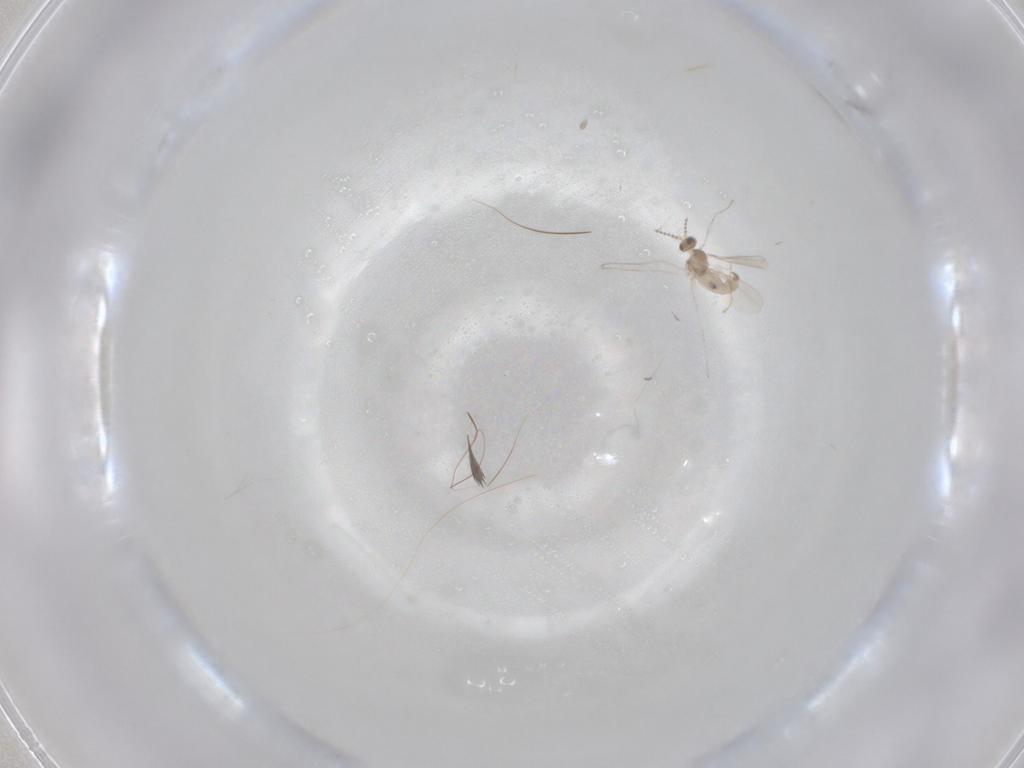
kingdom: Animalia
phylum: Arthropoda
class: Insecta
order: Diptera
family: Cecidomyiidae
